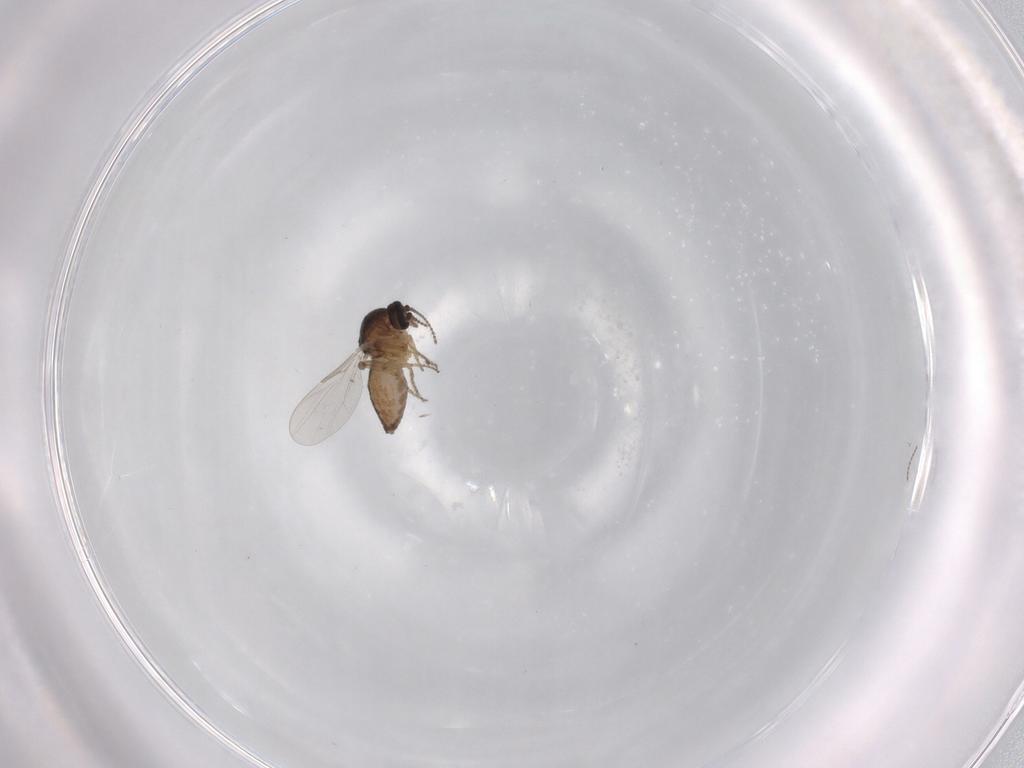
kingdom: Animalia
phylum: Arthropoda
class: Insecta
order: Diptera
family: Ceratopogonidae
